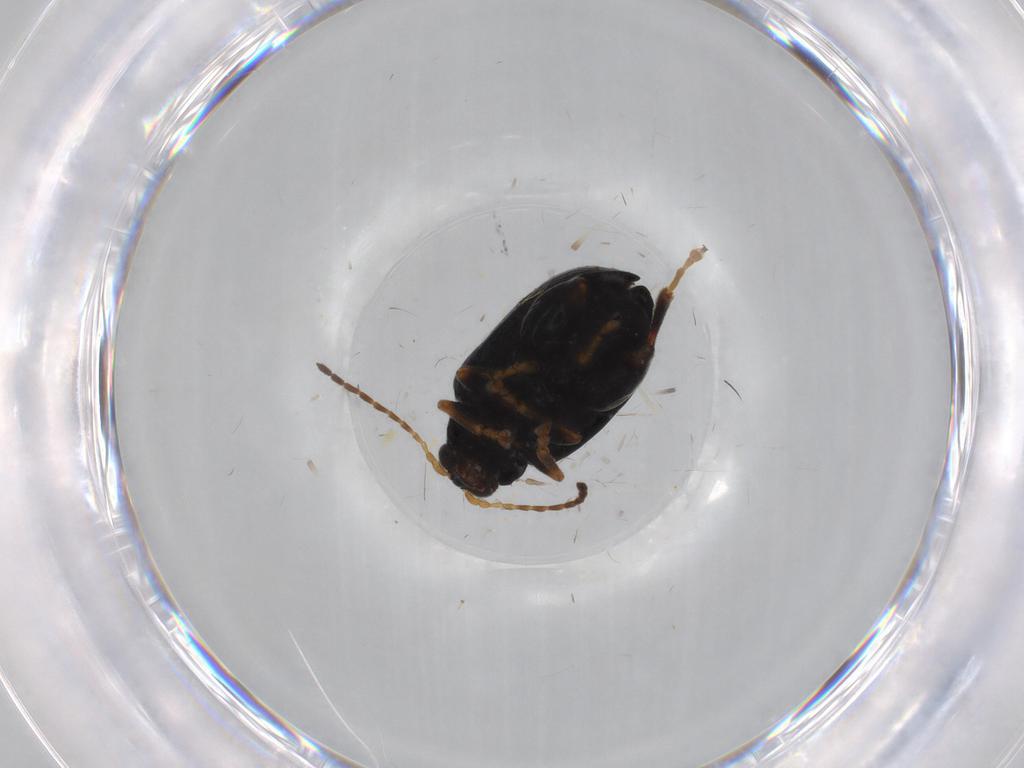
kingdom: Animalia
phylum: Arthropoda
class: Insecta
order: Coleoptera
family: Chrysomelidae
